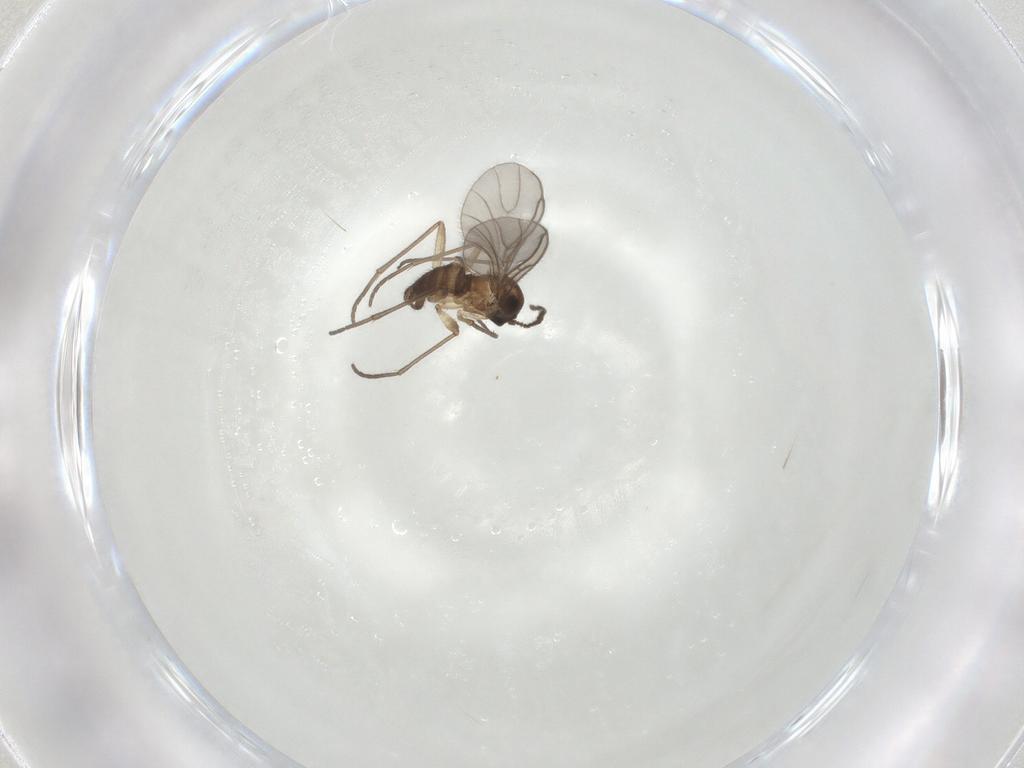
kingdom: Animalia
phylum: Arthropoda
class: Insecta
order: Diptera
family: Sciaridae
